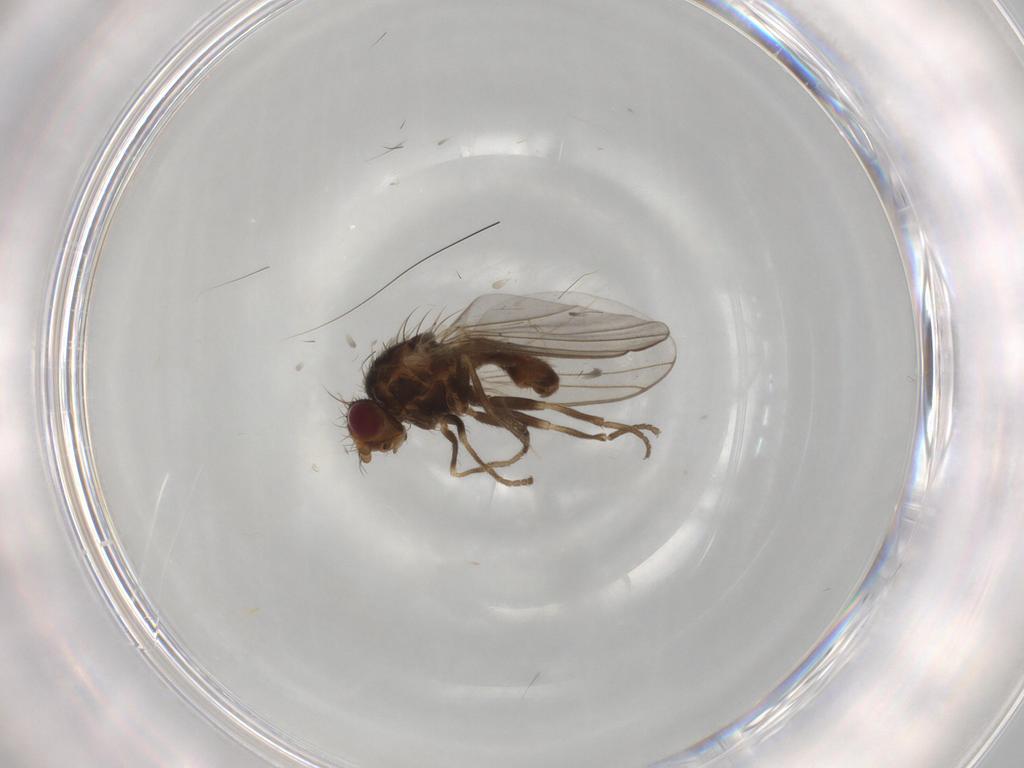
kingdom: Animalia
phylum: Arthropoda
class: Insecta
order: Diptera
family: Agromyzidae
